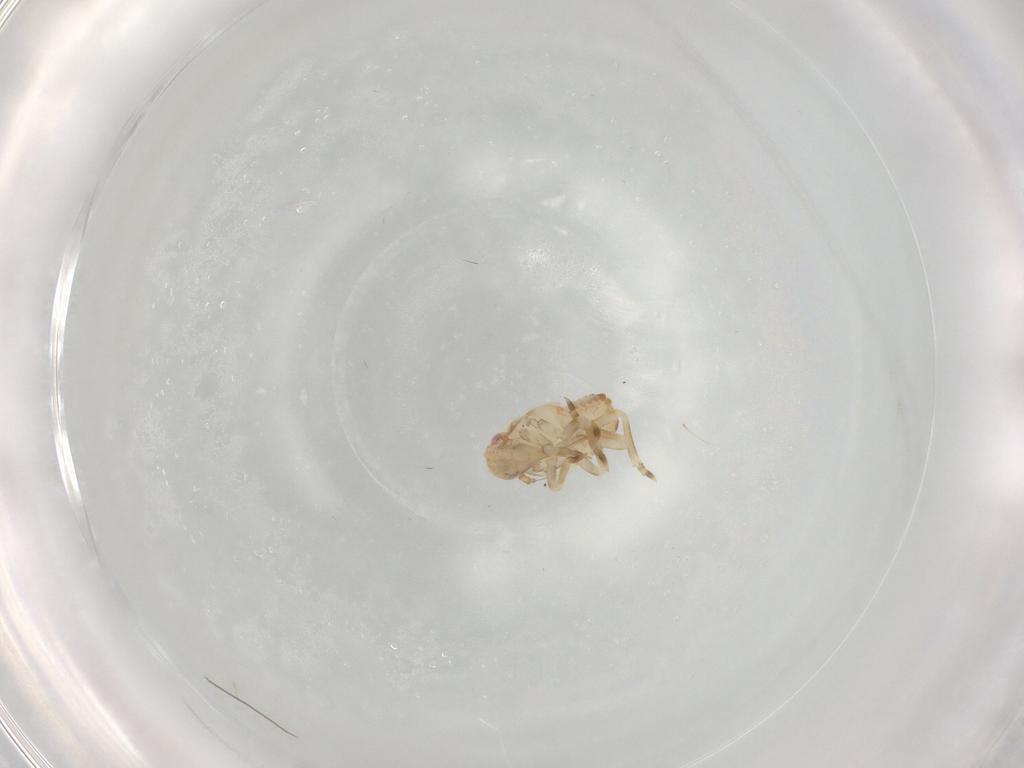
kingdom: Animalia
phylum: Arthropoda
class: Insecta
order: Hemiptera
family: Flatidae
